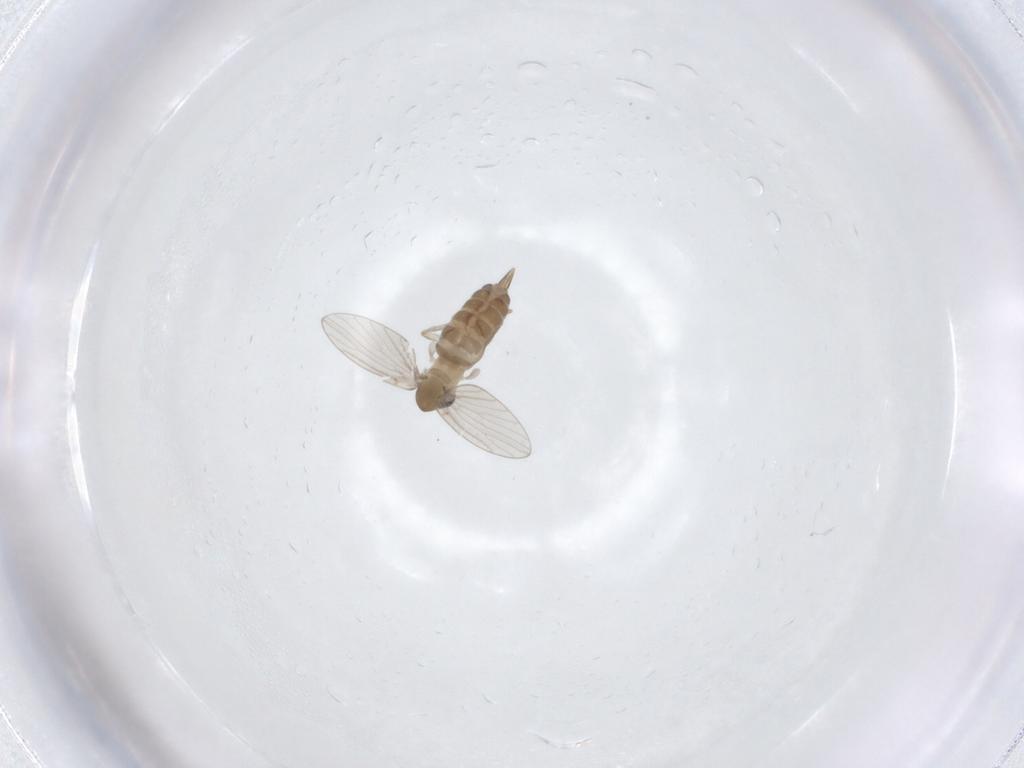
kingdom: Animalia
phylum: Arthropoda
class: Insecta
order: Diptera
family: Psychodidae
